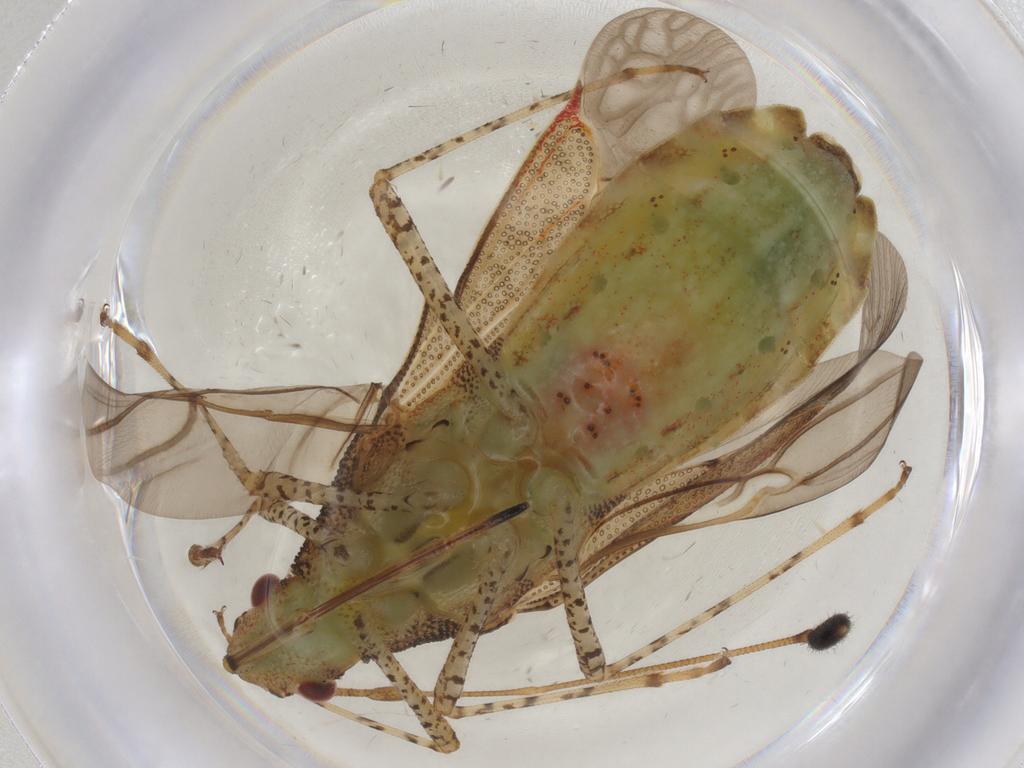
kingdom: Animalia
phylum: Arthropoda
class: Insecta
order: Hemiptera
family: Coreidae
